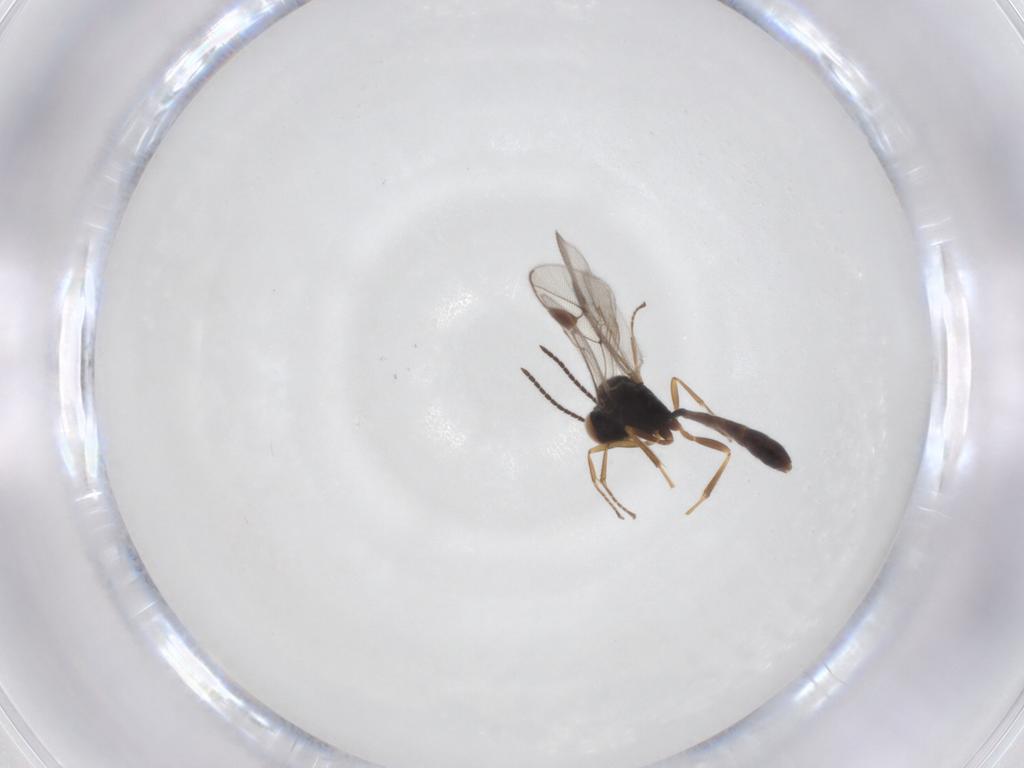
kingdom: Animalia
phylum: Arthropoda
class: Insecta
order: Hymenoptera
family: Ichneumonidae
